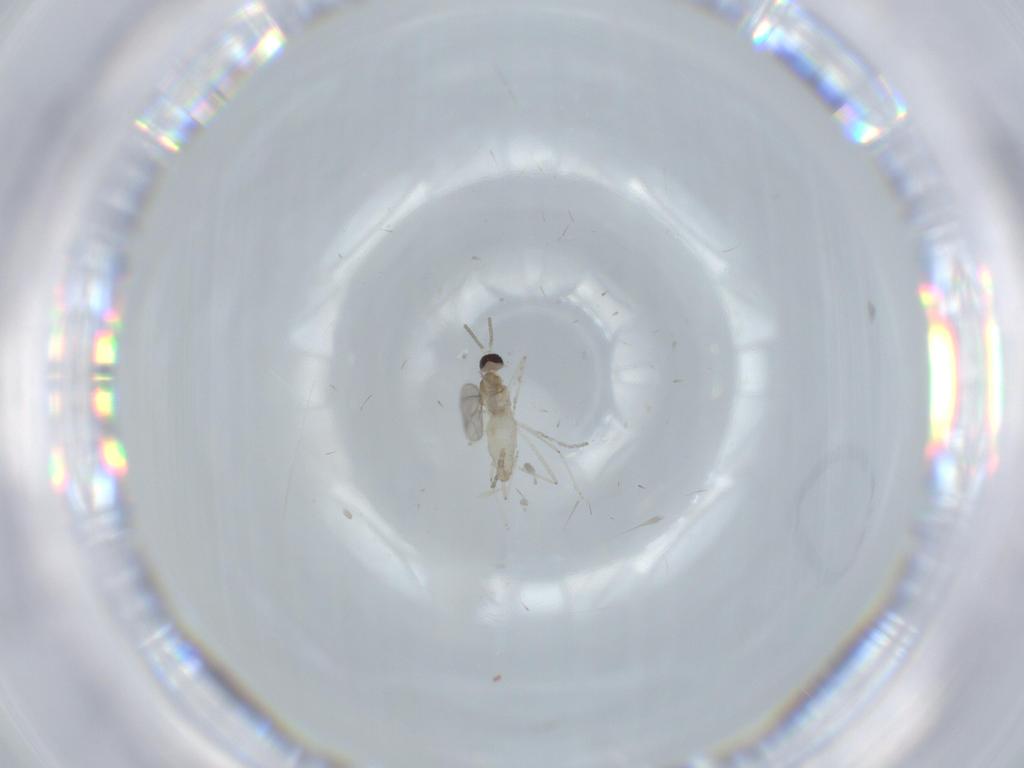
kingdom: Animalia
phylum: Arthropoda
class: Insecta
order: Diptera
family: Cecidomyiidae
